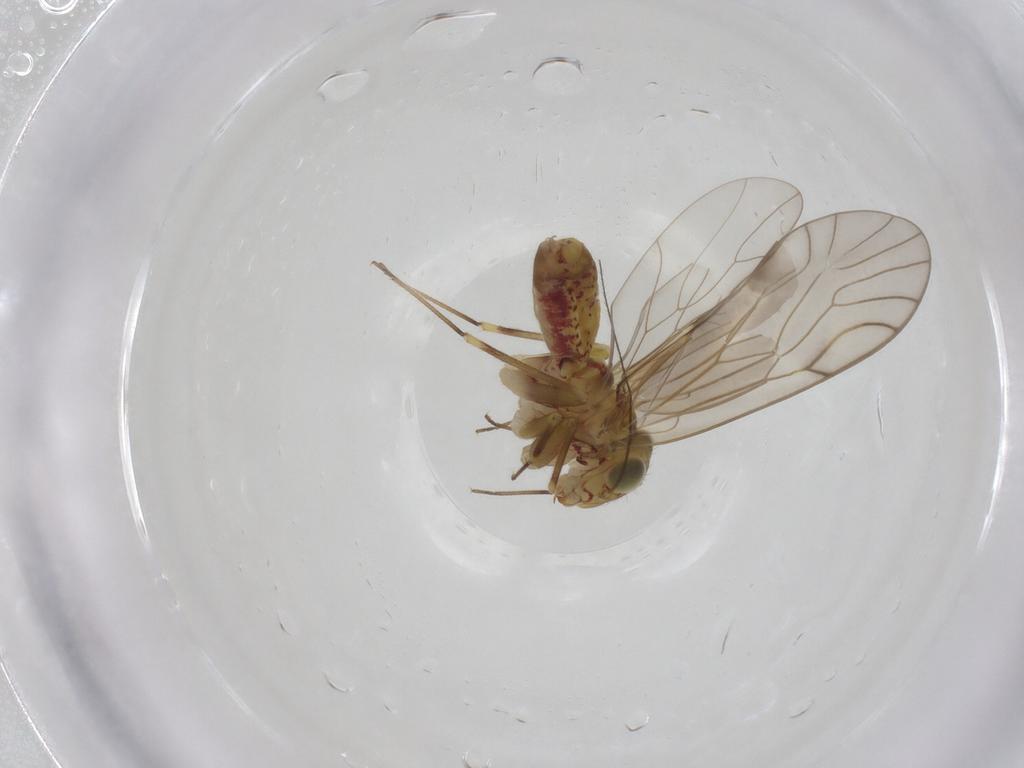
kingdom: Animalia
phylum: Arthropoda
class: Insecta
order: Psocodea
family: Philotarsidae
